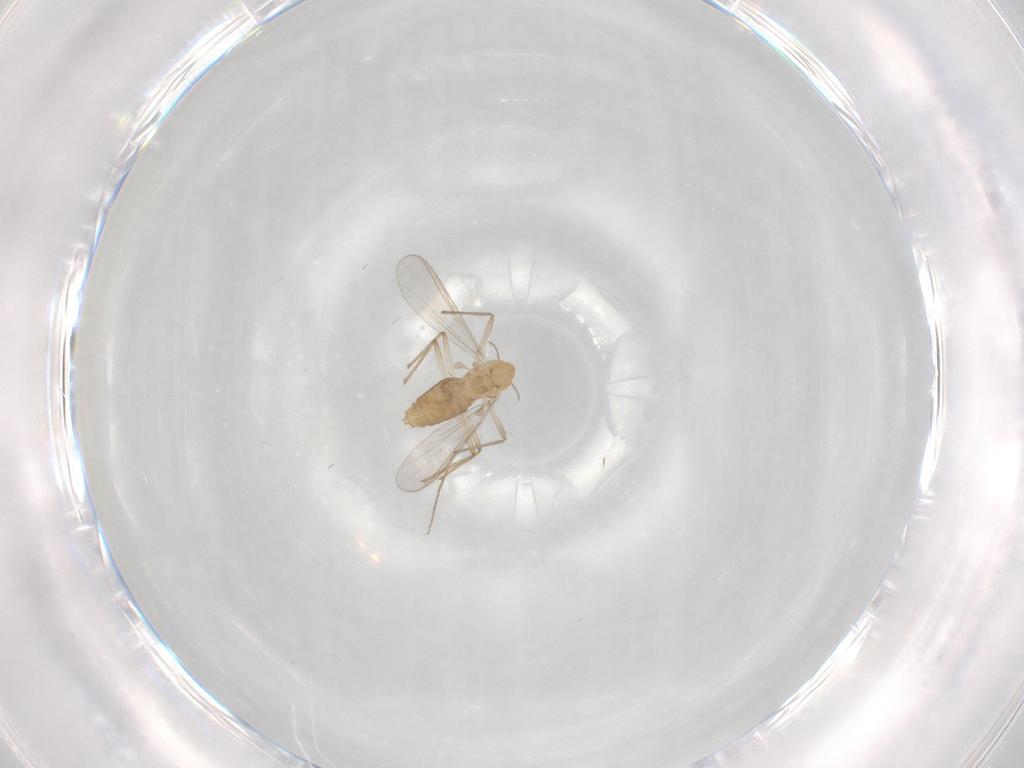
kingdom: Animalia
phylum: Arthropoda
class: Insecta
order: Diptera
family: Chironomidae
